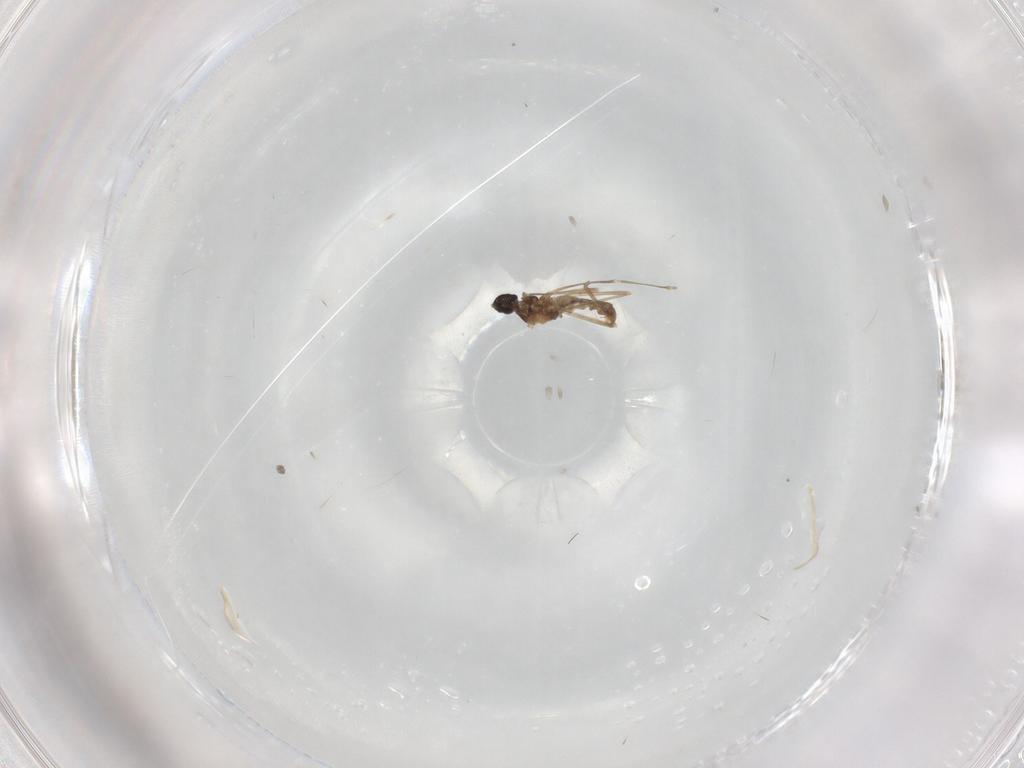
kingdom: Animalia
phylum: Arthropoda
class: Insecta
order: Diptera
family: Cecidomyiidae
